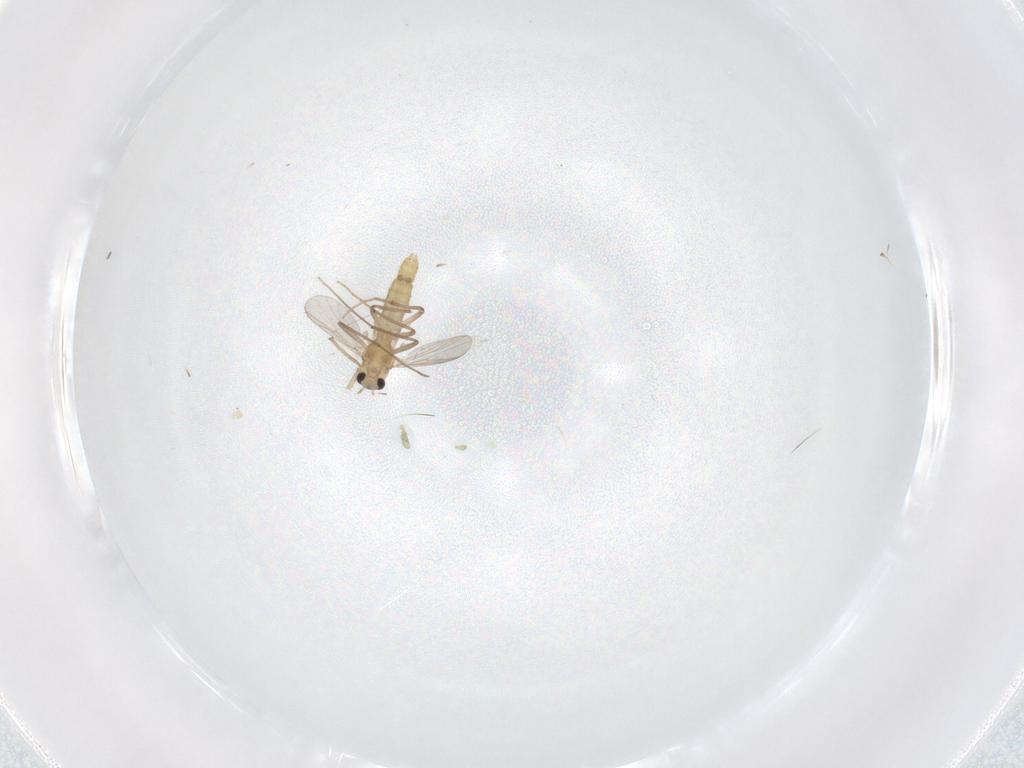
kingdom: Animalia
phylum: Arthropoda
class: Insecta
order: Diptera
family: Chironomidae
